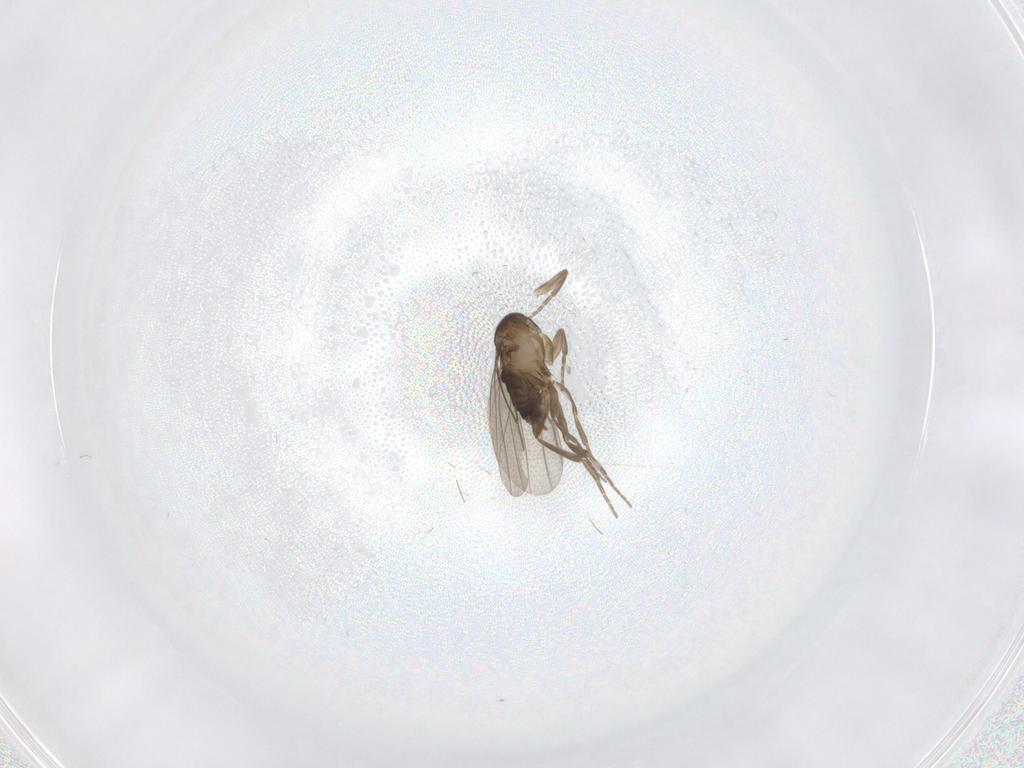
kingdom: Animalia
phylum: Arthropoda
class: Insecta
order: Diptera
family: Phoridae
